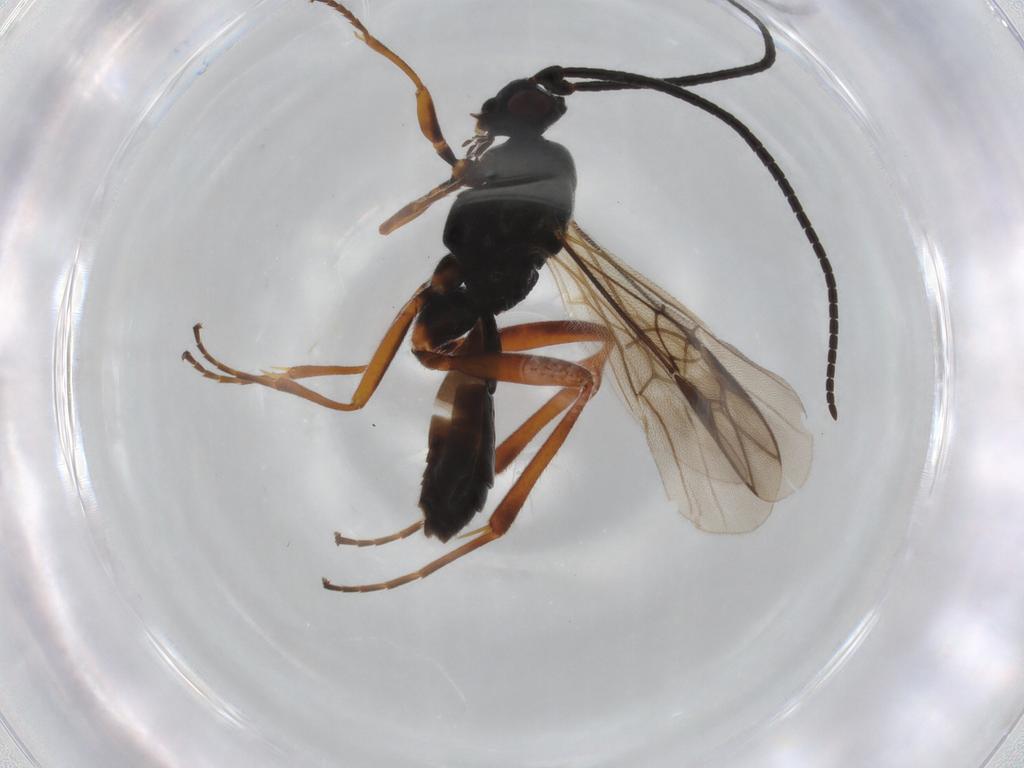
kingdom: Animalia
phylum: Arthropoda
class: Insecta
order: Hymenoptera
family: Braconidae
